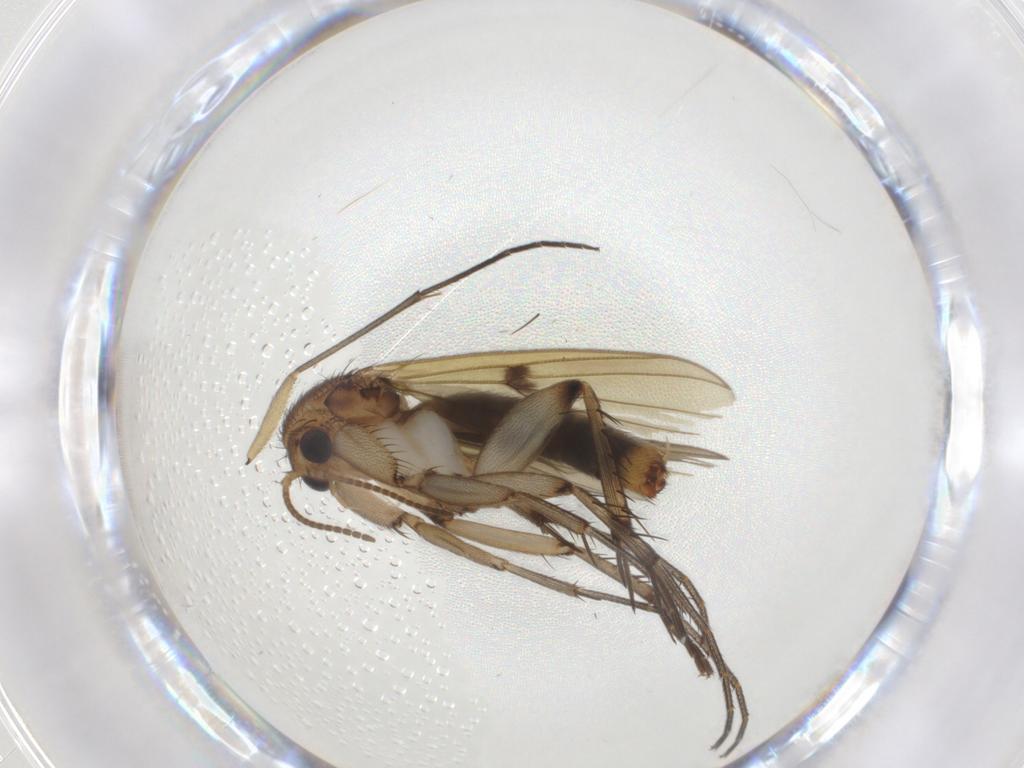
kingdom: Animalia
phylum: Arthropoda
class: Insecta
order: Diptera
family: Mycetophilidae
